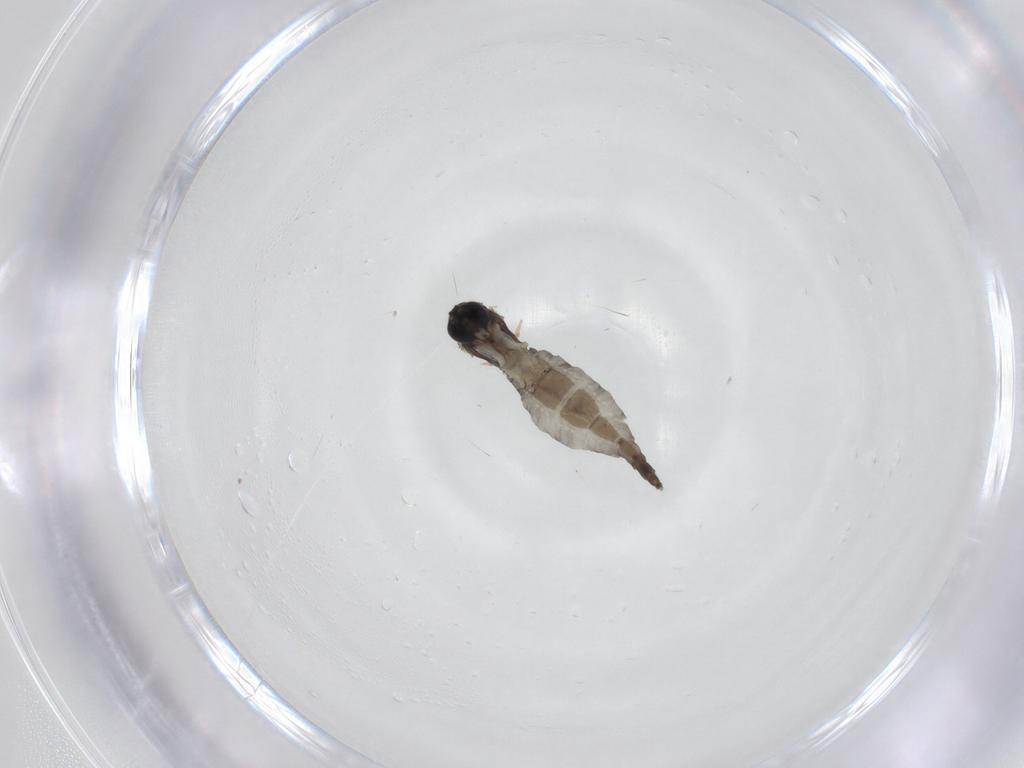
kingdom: Animalia
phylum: Arthropoda
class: Insecta
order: Diptera
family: Sciaridae
